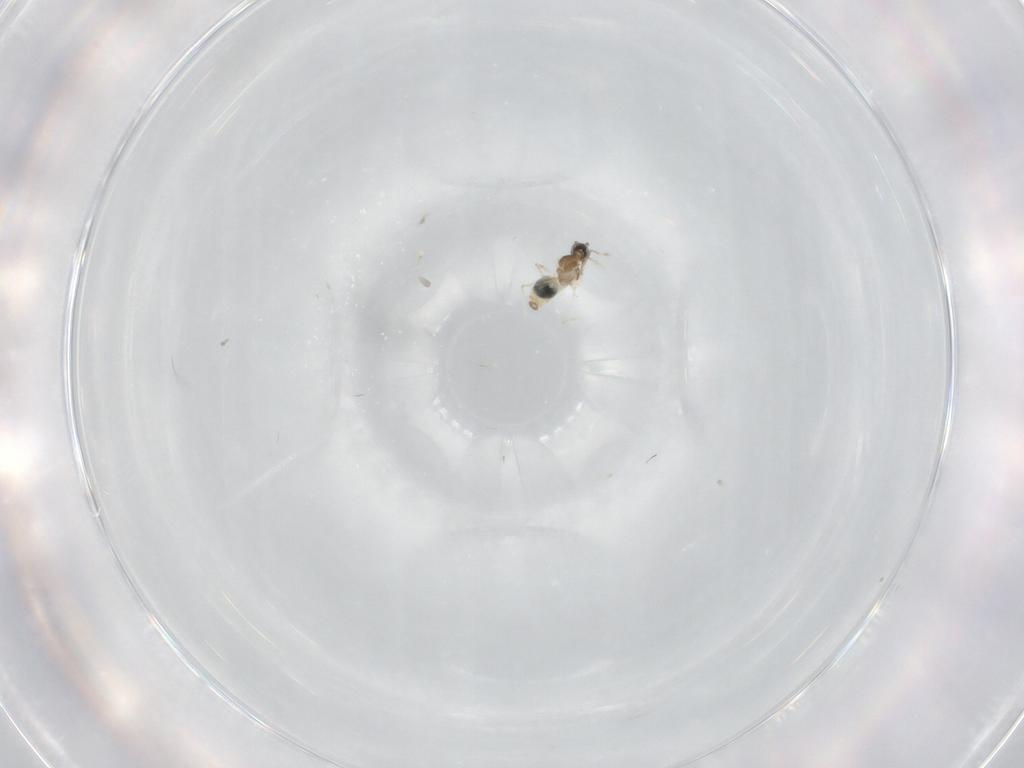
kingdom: Animalia
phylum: Arthropoda
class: Insecta
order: Diptera
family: Cecidomyiidae
